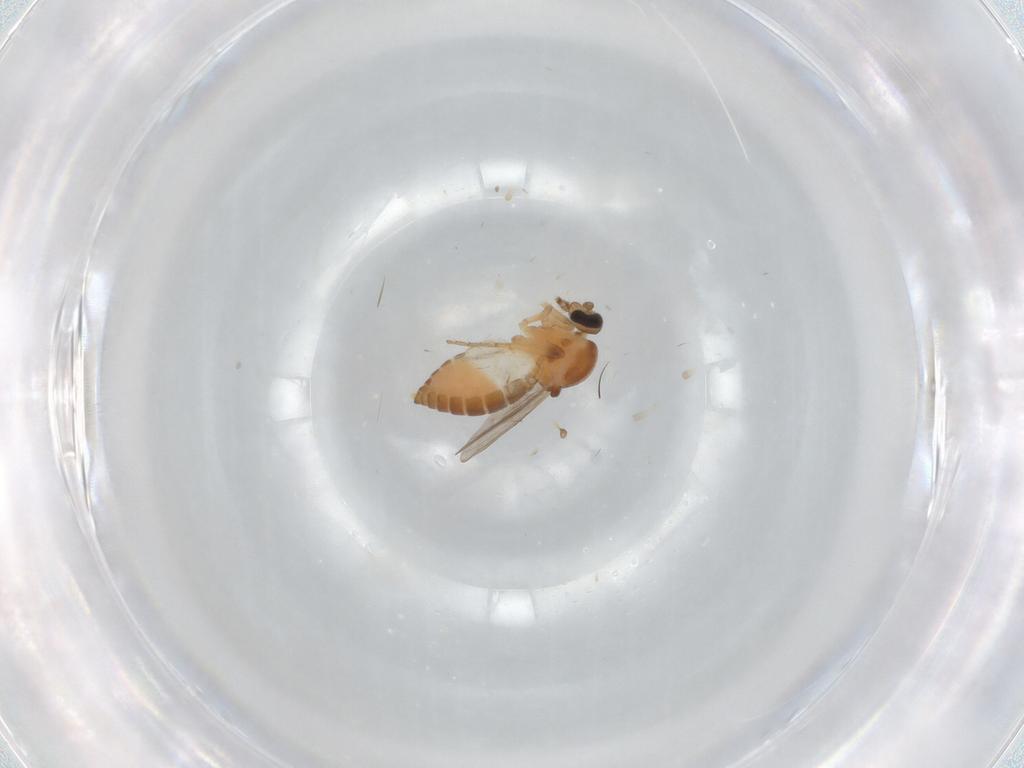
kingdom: Animalia
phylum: Arthropoda
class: Insecta
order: Diptera
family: Ceratopogonidae
